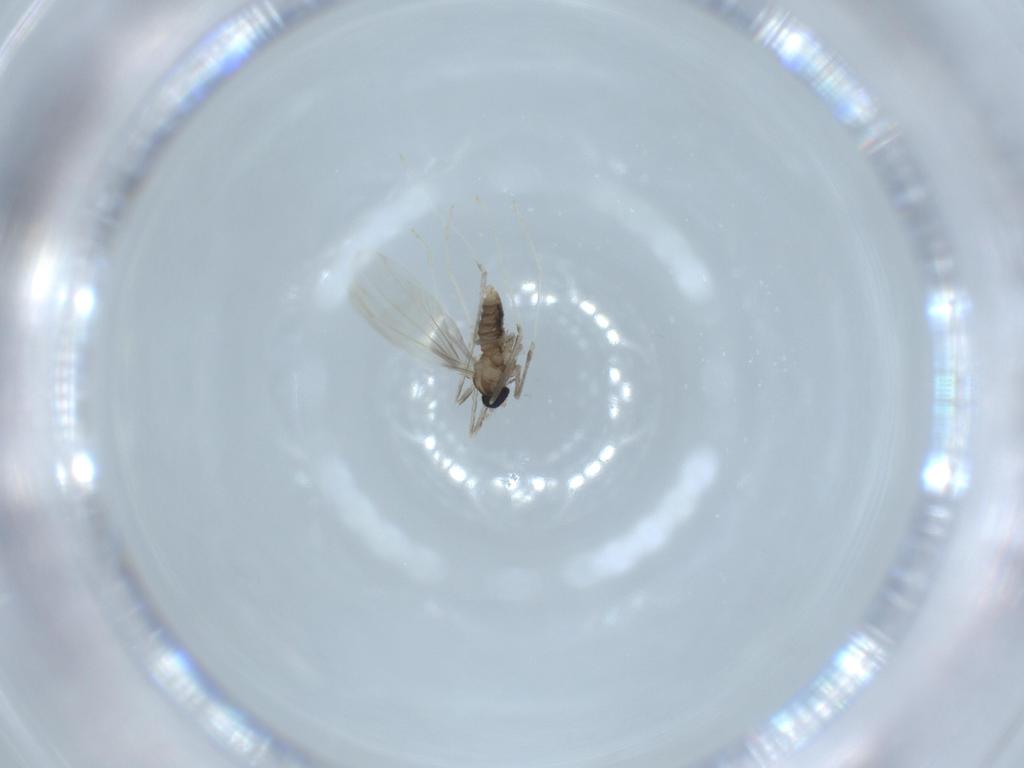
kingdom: Animalia
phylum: Arthropoda
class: Insecta
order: Diptera
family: Cecidomyiidae
